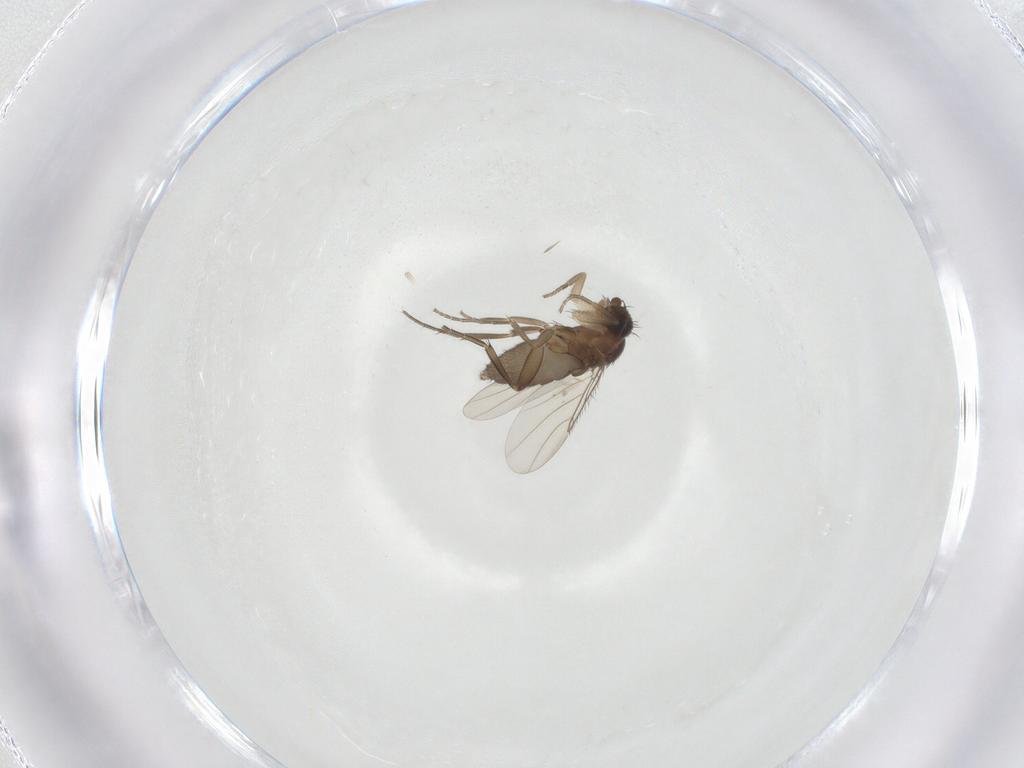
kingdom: Animalia
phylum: Arthropoda
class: Insecta
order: Diptera
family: Phoridae
